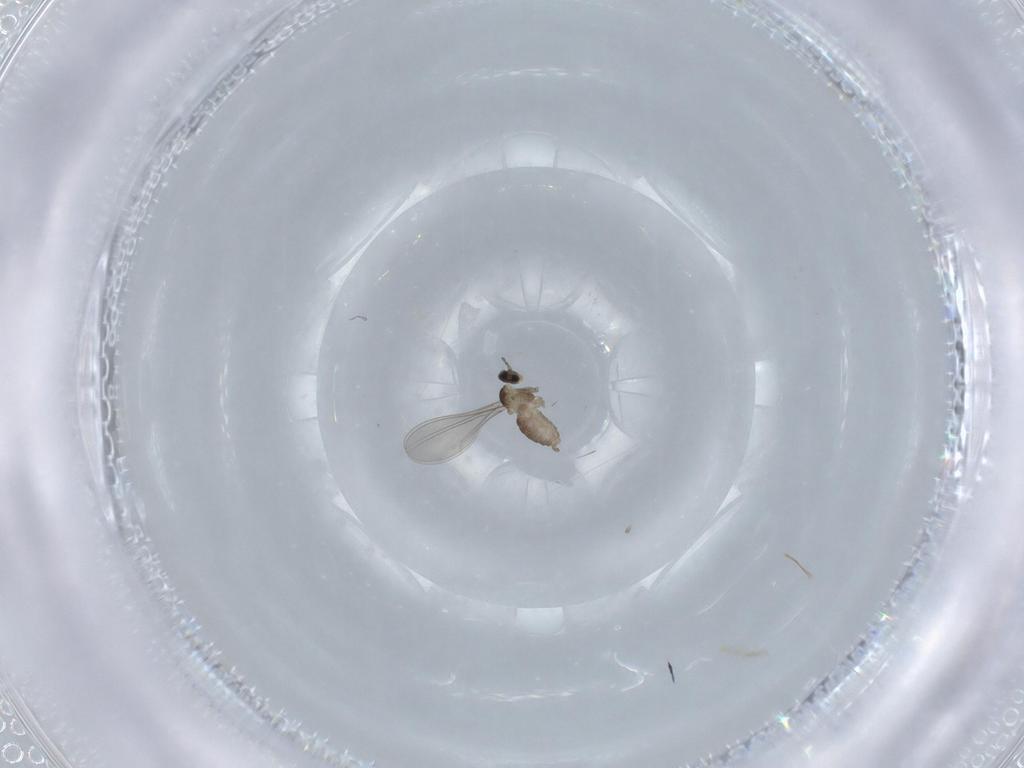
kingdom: Animalia
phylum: Arthropoda
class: Insecta
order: Diptera
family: Cecidomyiidae
